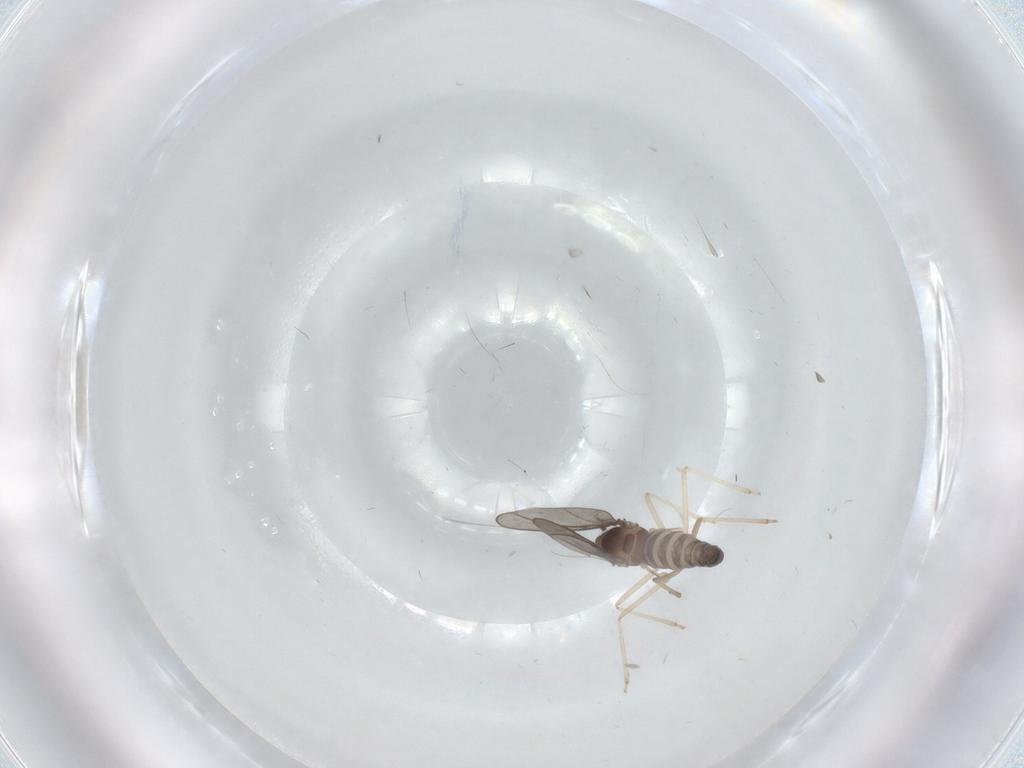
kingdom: Animalia
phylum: Arthropoda
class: Insecta
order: Diptera
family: Cecidomyiidae
